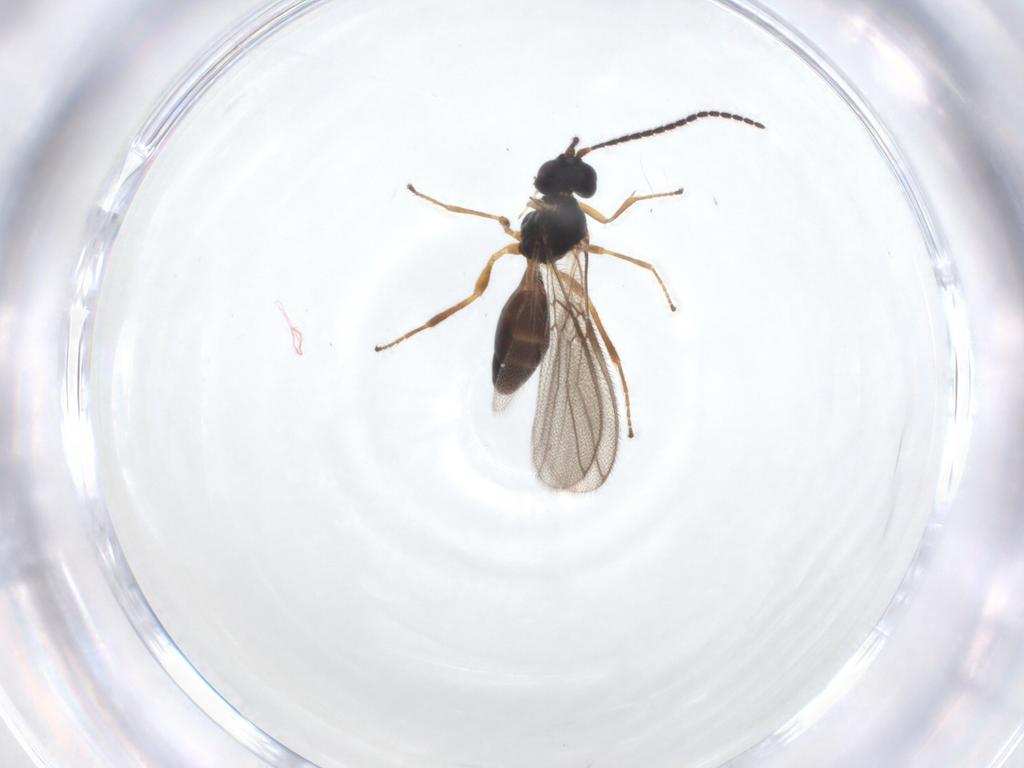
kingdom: Animalia
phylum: Arthropoda
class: Insecta
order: Hymenoptera
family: Braconidae
